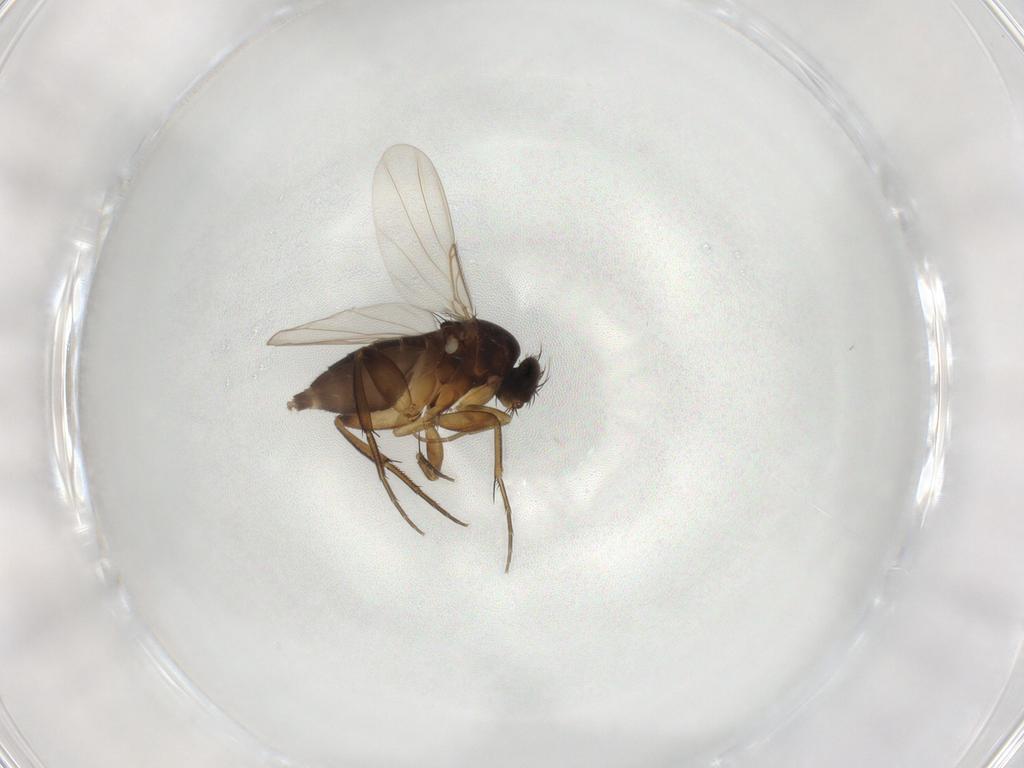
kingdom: Animalia
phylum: Arthropoda
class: Insecta
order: Diptera
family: Phoridae
